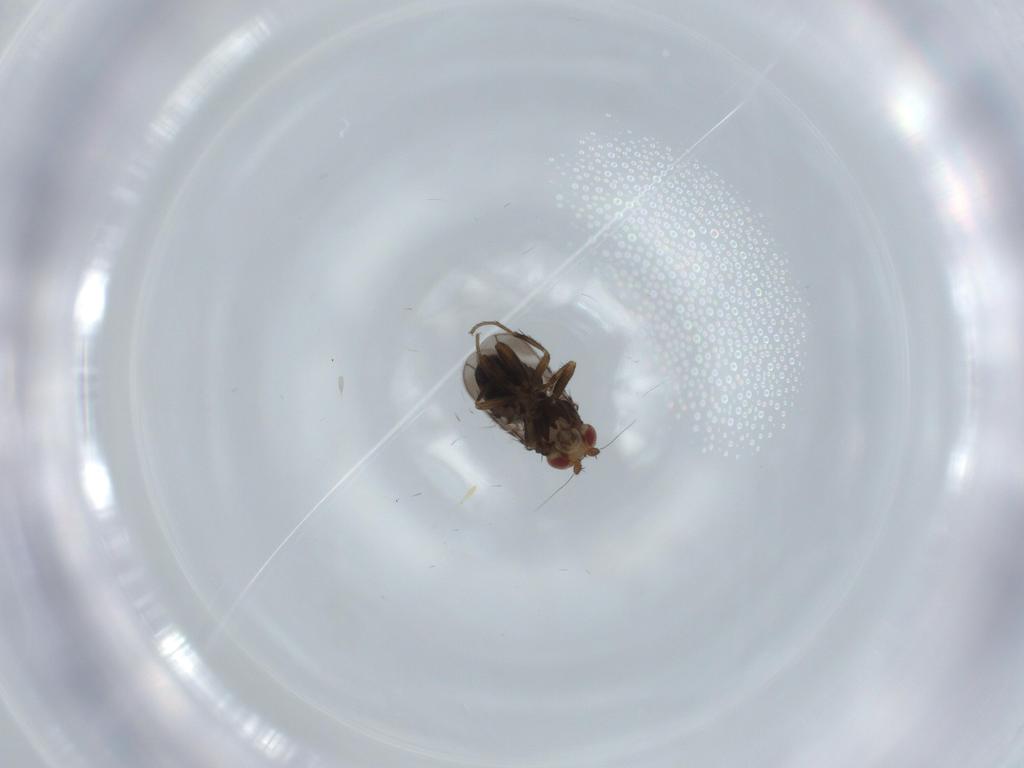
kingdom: Animalia
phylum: Arthropoda
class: Insecta
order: Diptera
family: Sphaeroceridae
